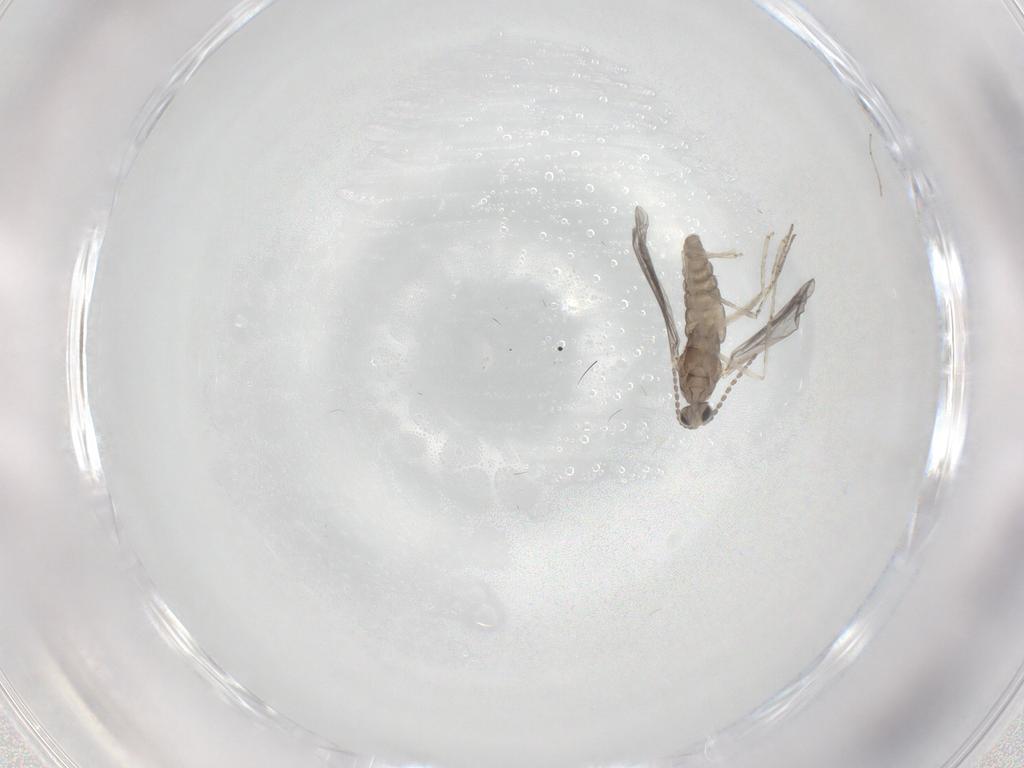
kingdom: Animalia
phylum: Arthropoda
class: Insecta
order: Diptera
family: Cecidomyiidae
